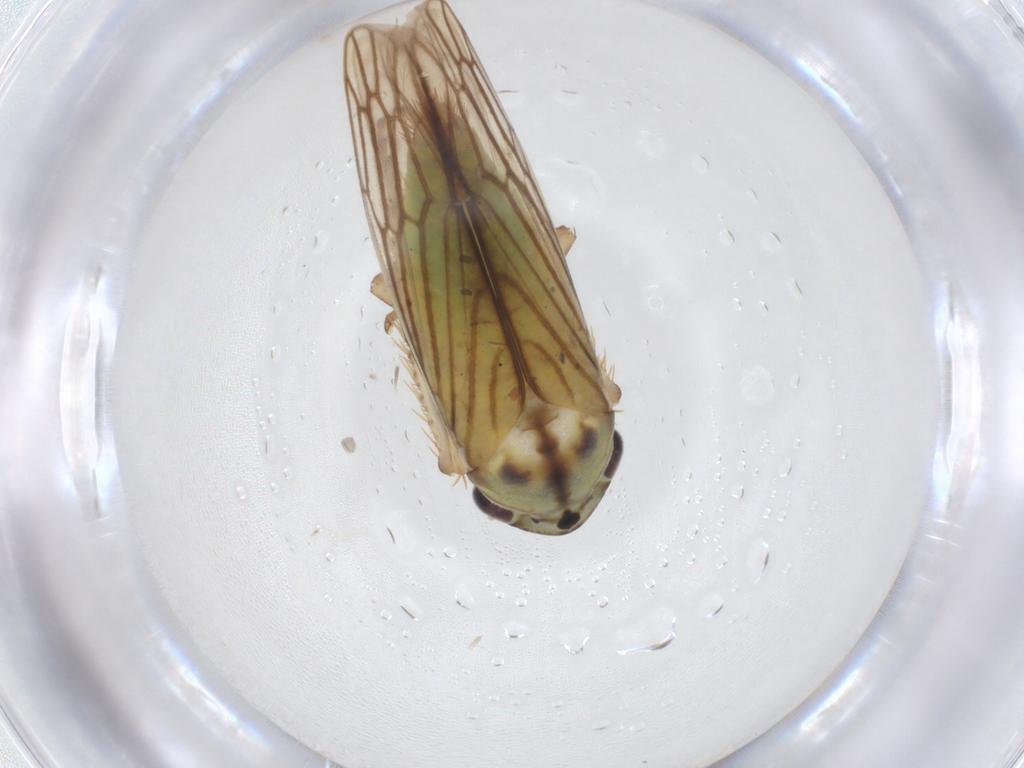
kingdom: Animalia
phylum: Arthropoda
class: Insecta
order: Hemiptera
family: Cicadellidae
